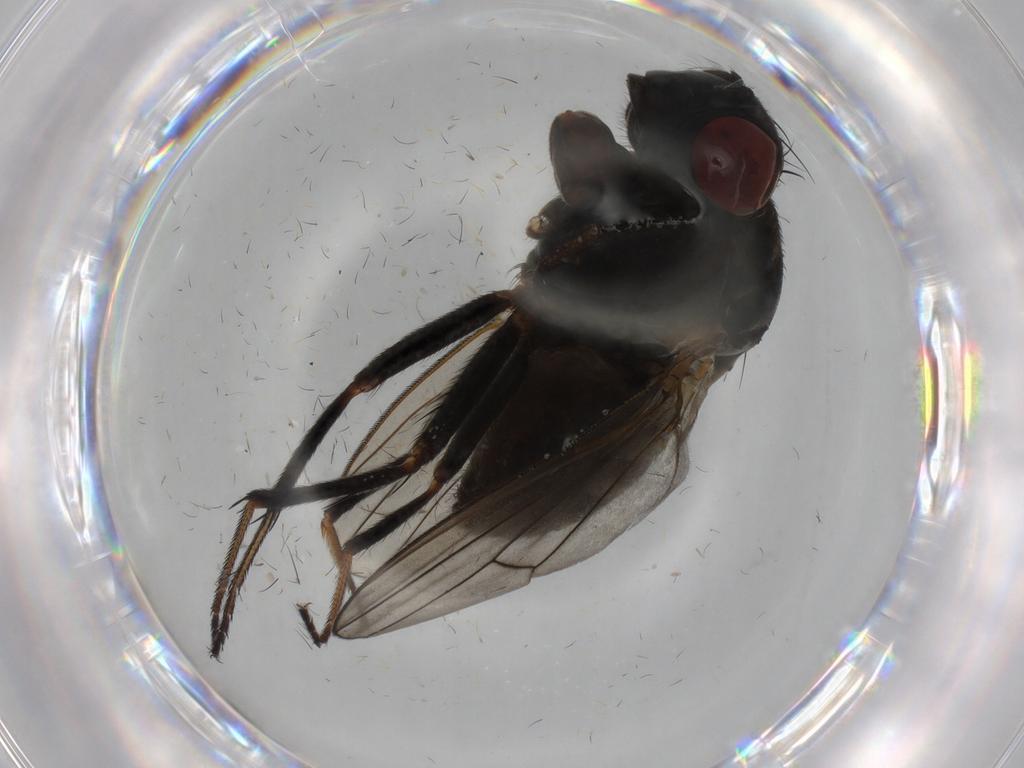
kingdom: Animalia
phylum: Arthropoda
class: Insecta
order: Diptera
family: Dolichopodidae
